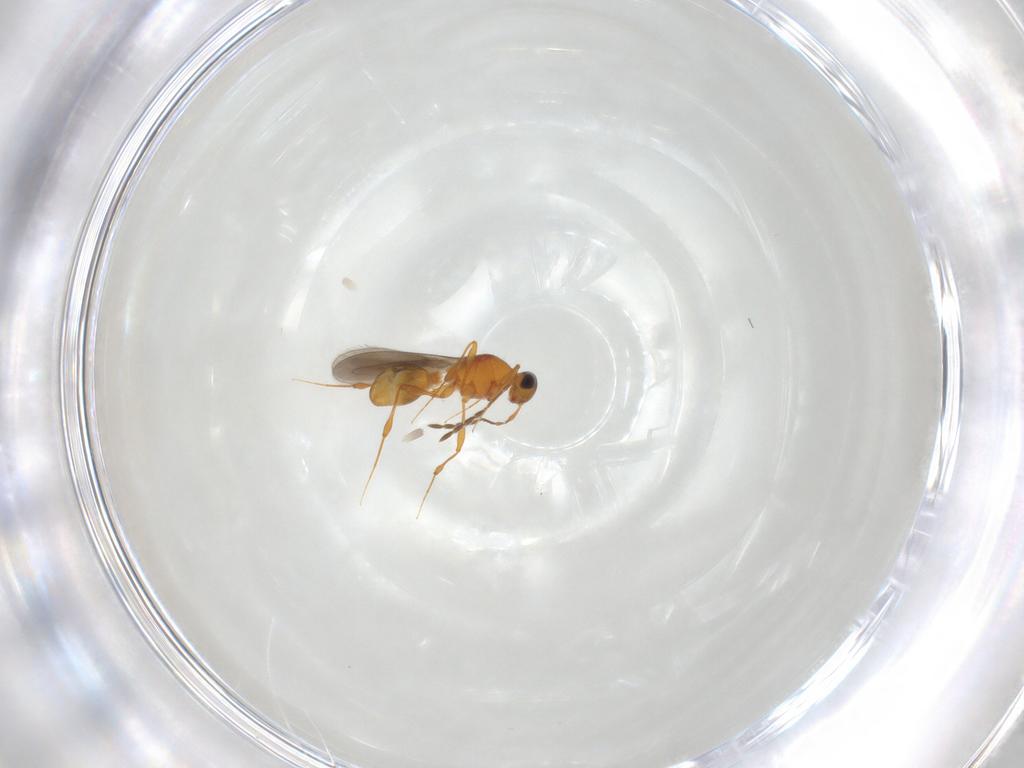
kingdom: Animalia
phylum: Arthropoda
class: Insecta
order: Hymenoptera
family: Platygastridae
